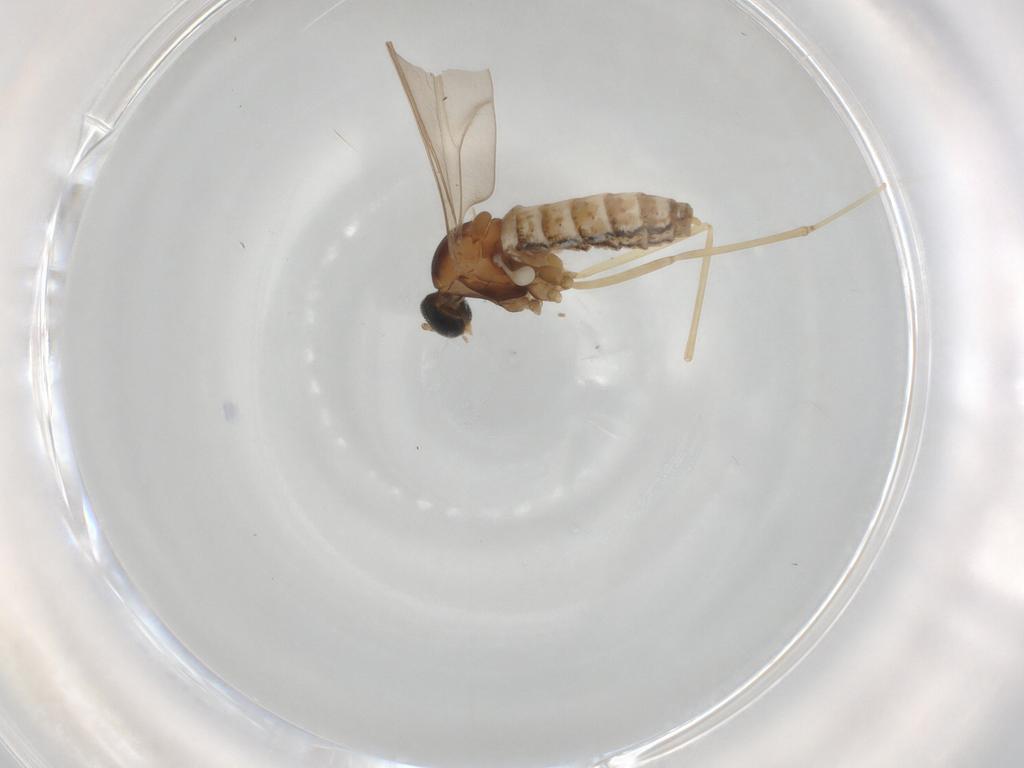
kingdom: Animalia
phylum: Arthropoda
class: Insecta
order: Diptera
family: Cecidomyiidae
